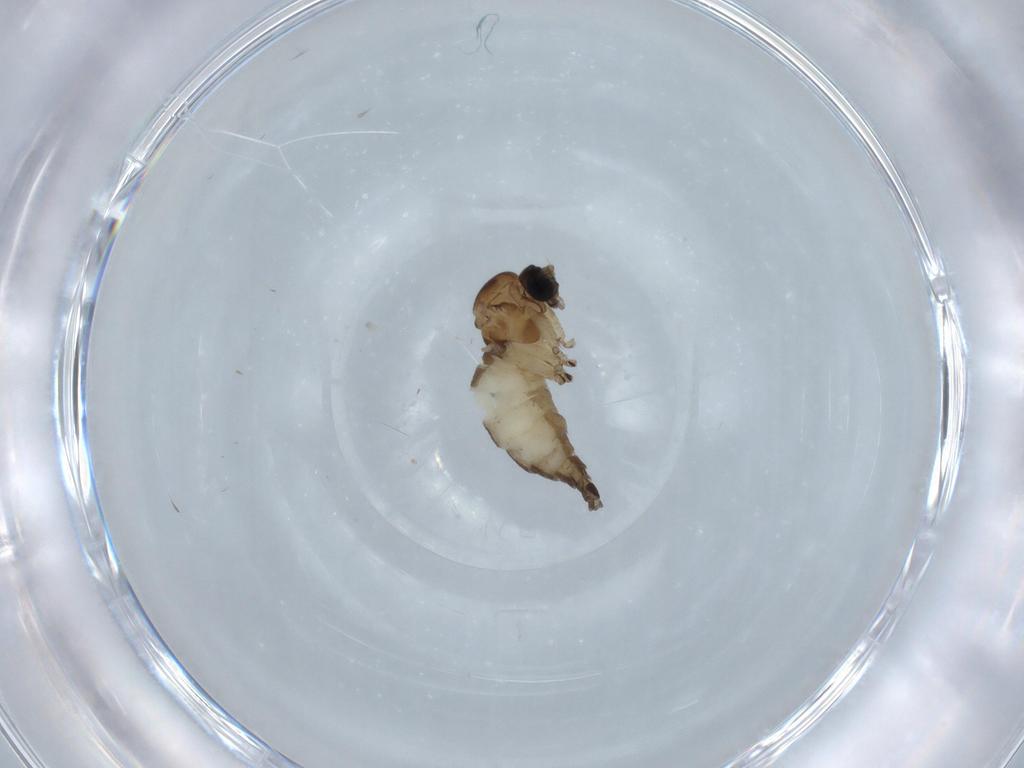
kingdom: Animalia
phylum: Arthropoda
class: Insecta
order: Diptera
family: Sciaridae
